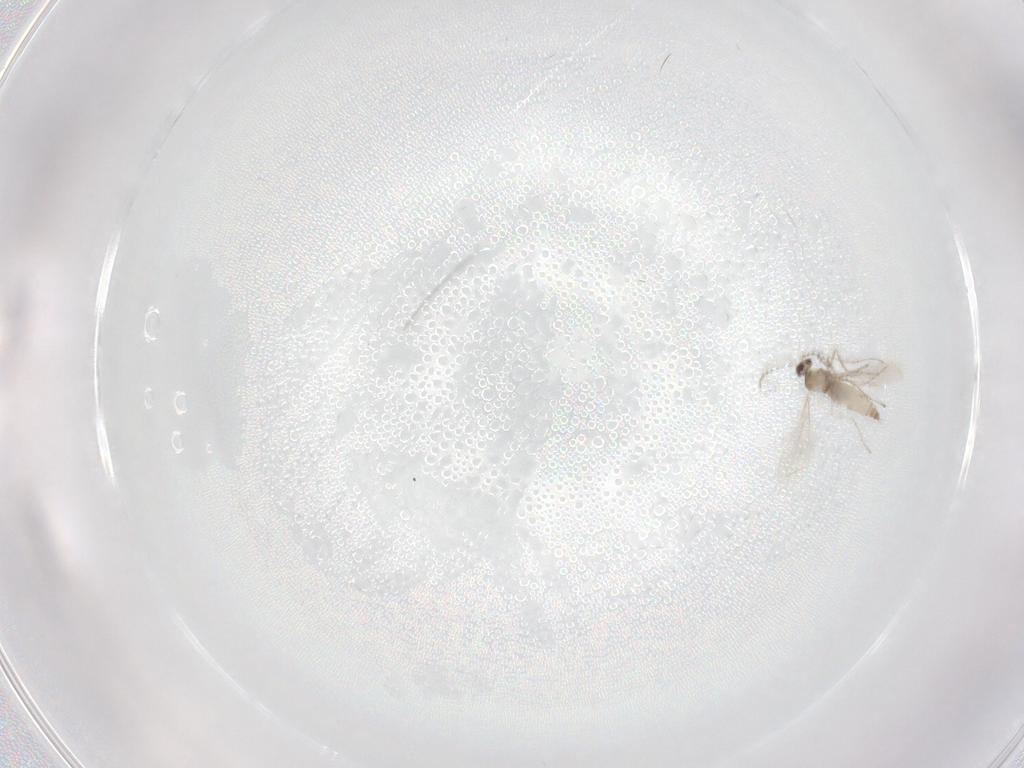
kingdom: Animalia
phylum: Arthropoda
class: Insecta
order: Diptera
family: Cecidomyiidae
